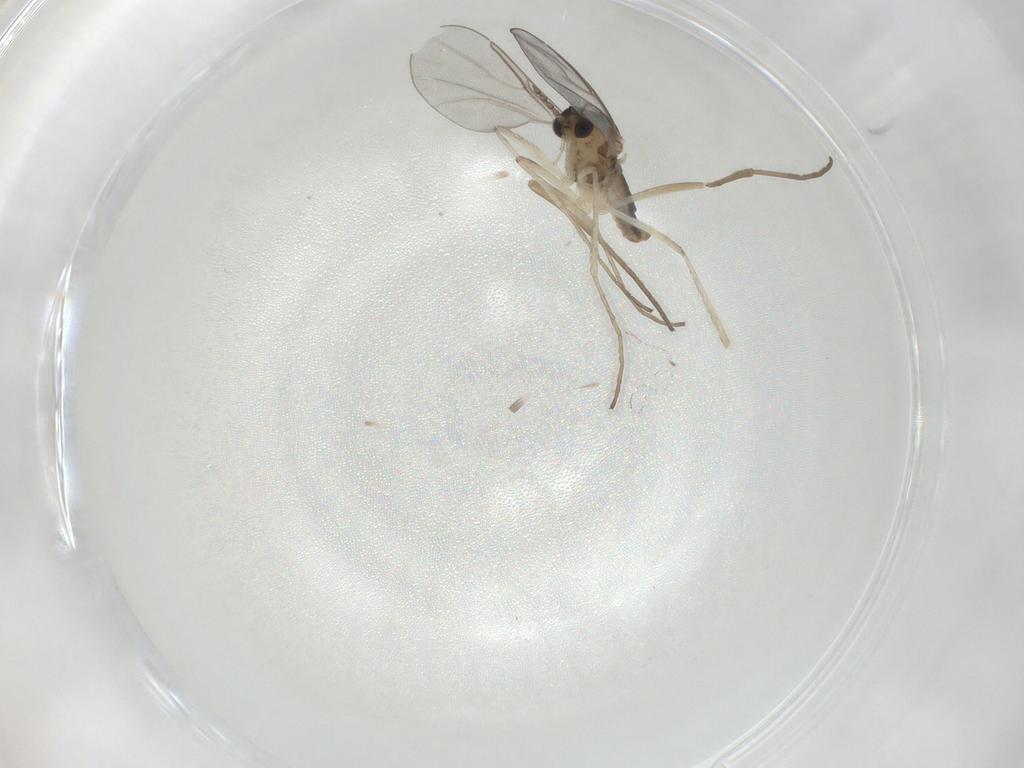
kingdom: Animalia
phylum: Arthropoda
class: Insecta
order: Diptera
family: Cecidomyiidae
